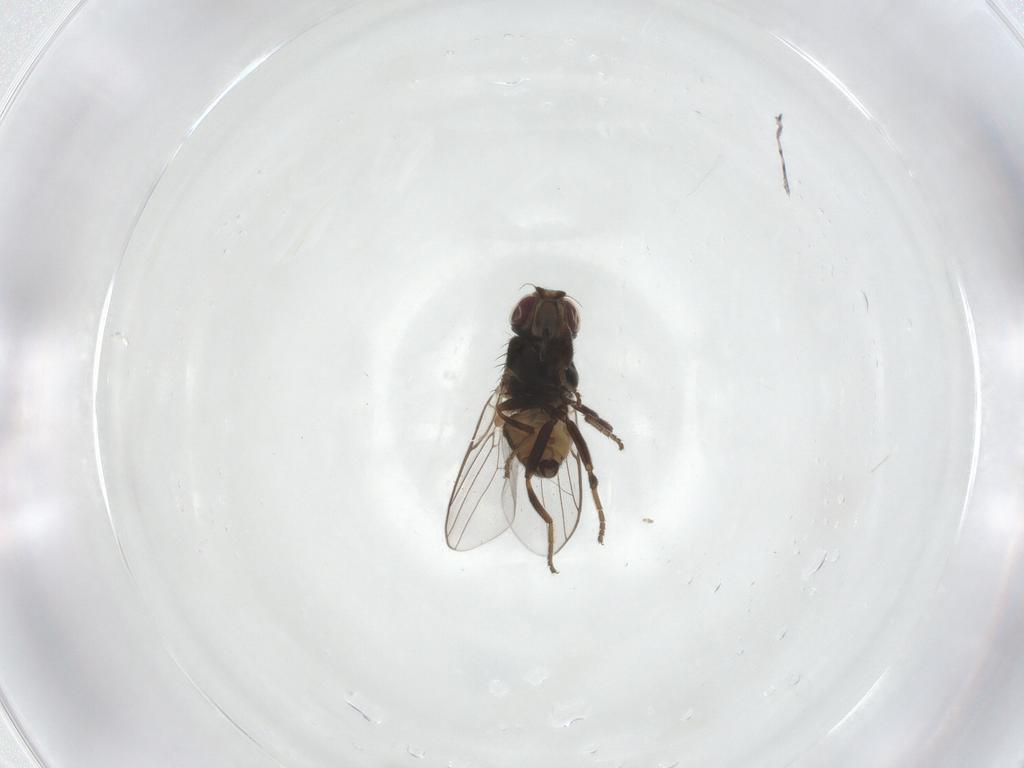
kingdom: Animalia
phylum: Arthropoda
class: Insecta
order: Diptera
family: Chloropidae
